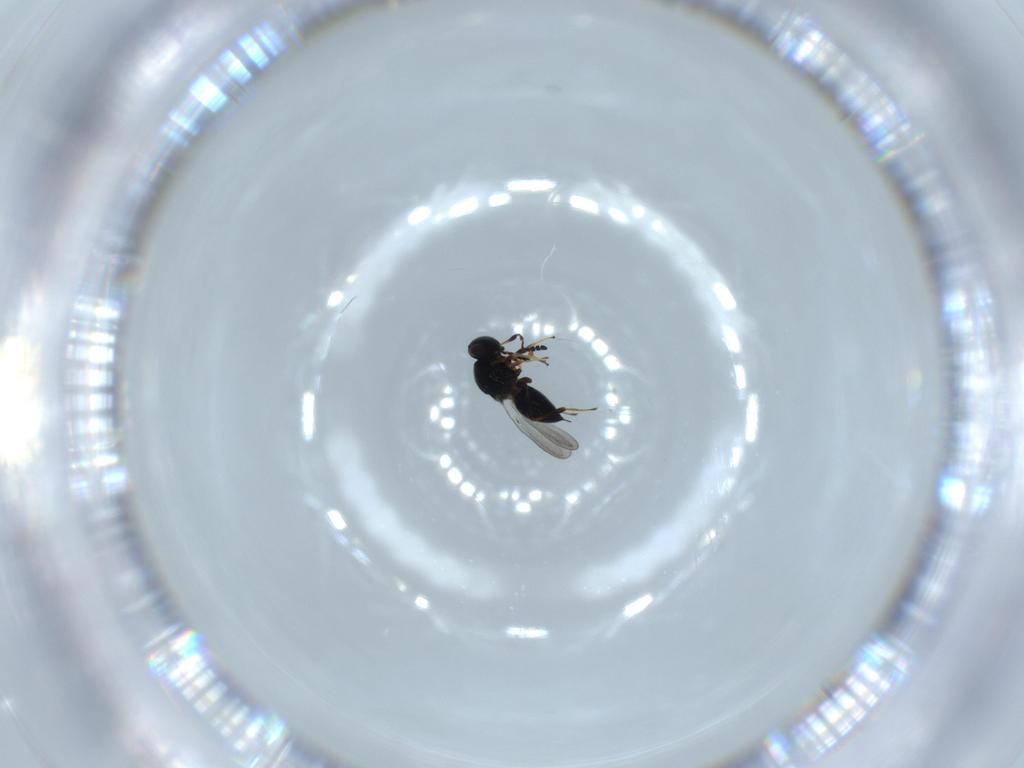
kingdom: Animalia
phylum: Arthropoda
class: Insecta
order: Hymenoptera
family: Platygastridae
